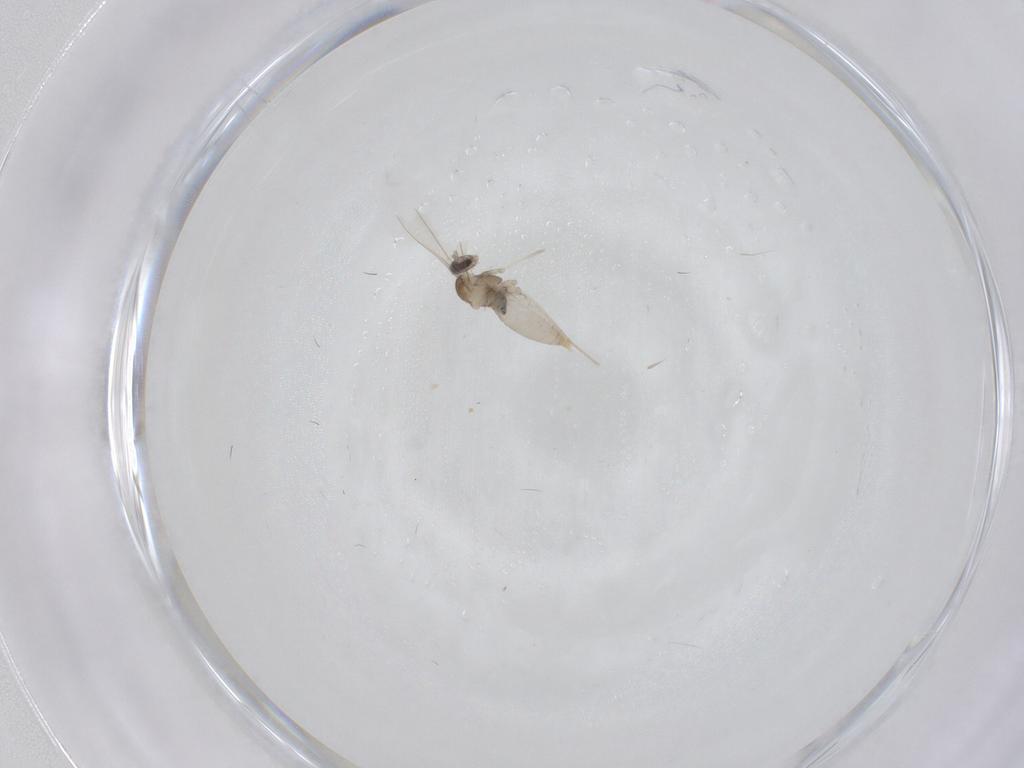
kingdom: Animalia
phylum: Arthropoda
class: Insecta
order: Diptera
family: Cecidomyiidae
